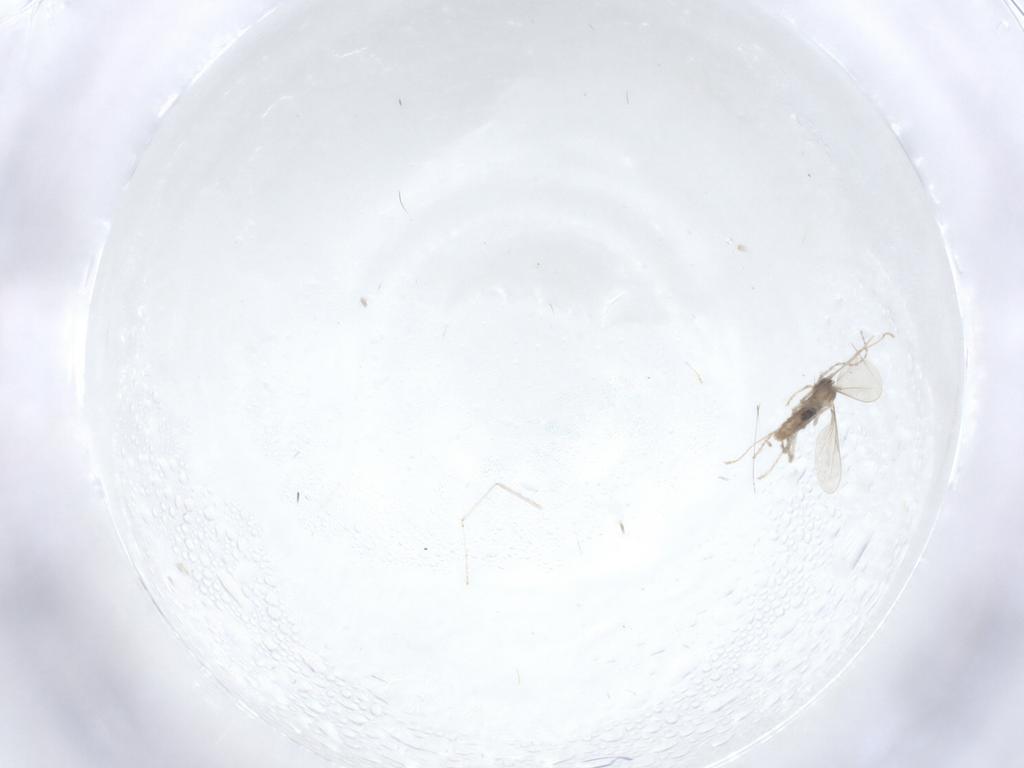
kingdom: Animalia
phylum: Arthropoda
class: Insecta
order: Diptera
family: Cecidomyiidae
